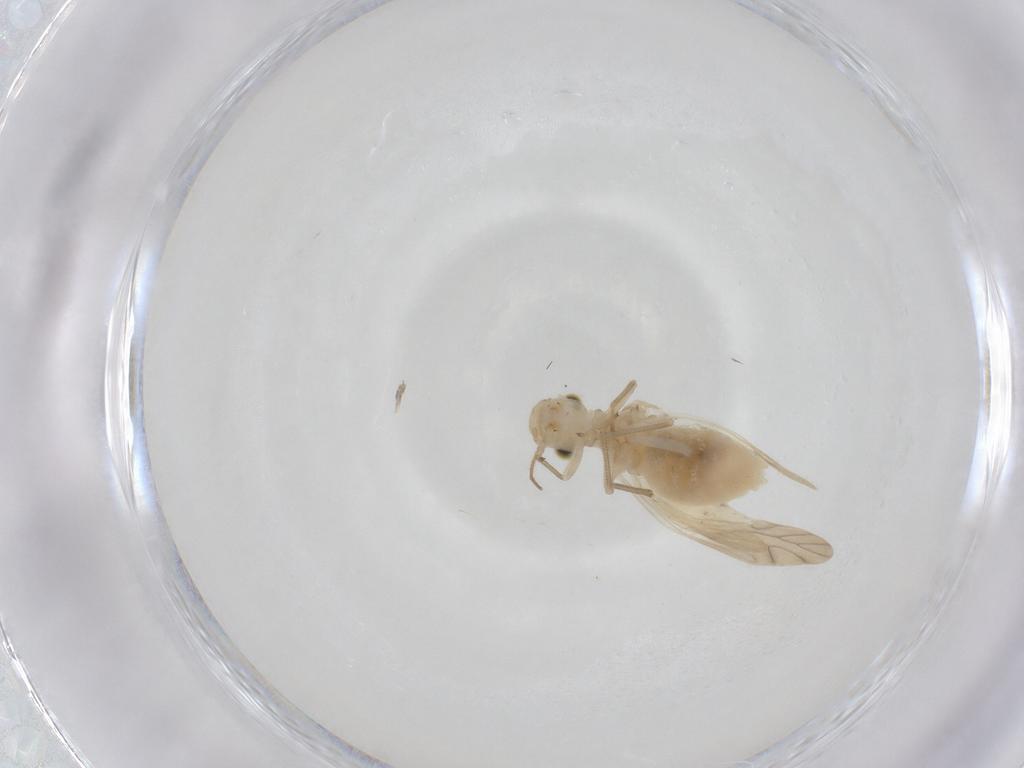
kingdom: Animalia
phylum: Arthropoda
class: Insecta
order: Psocodea
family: Caeciliusidae
